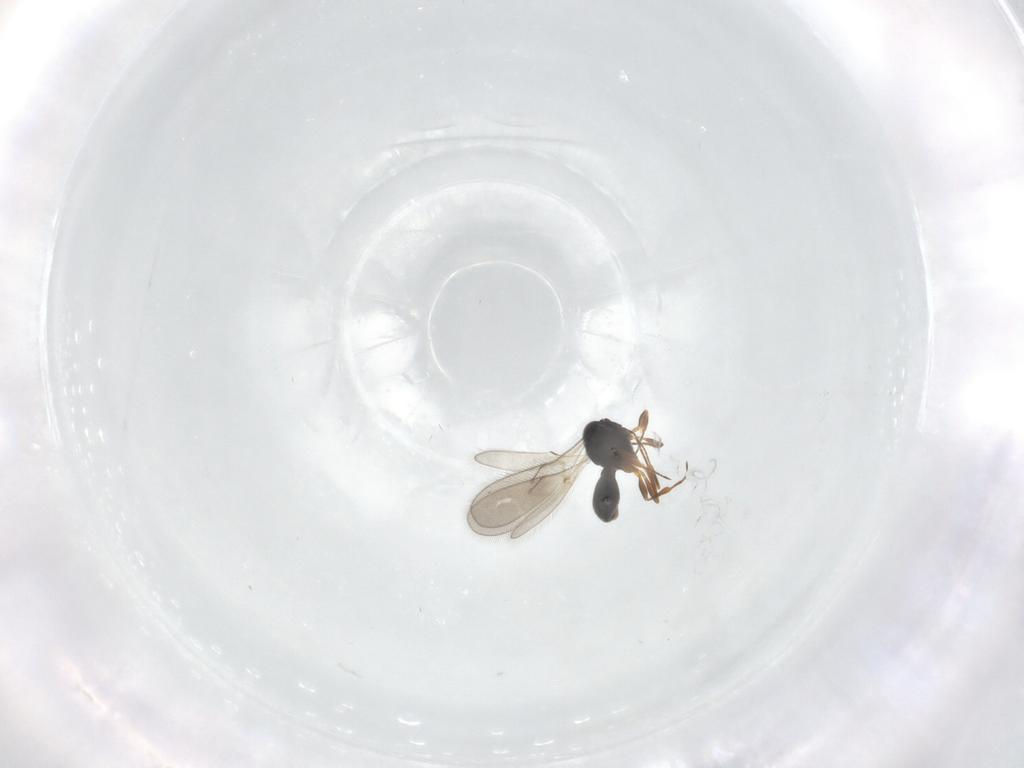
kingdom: Animalia
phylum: Arthropoda
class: Insecta
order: Hymenoptera
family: Scelionidae
